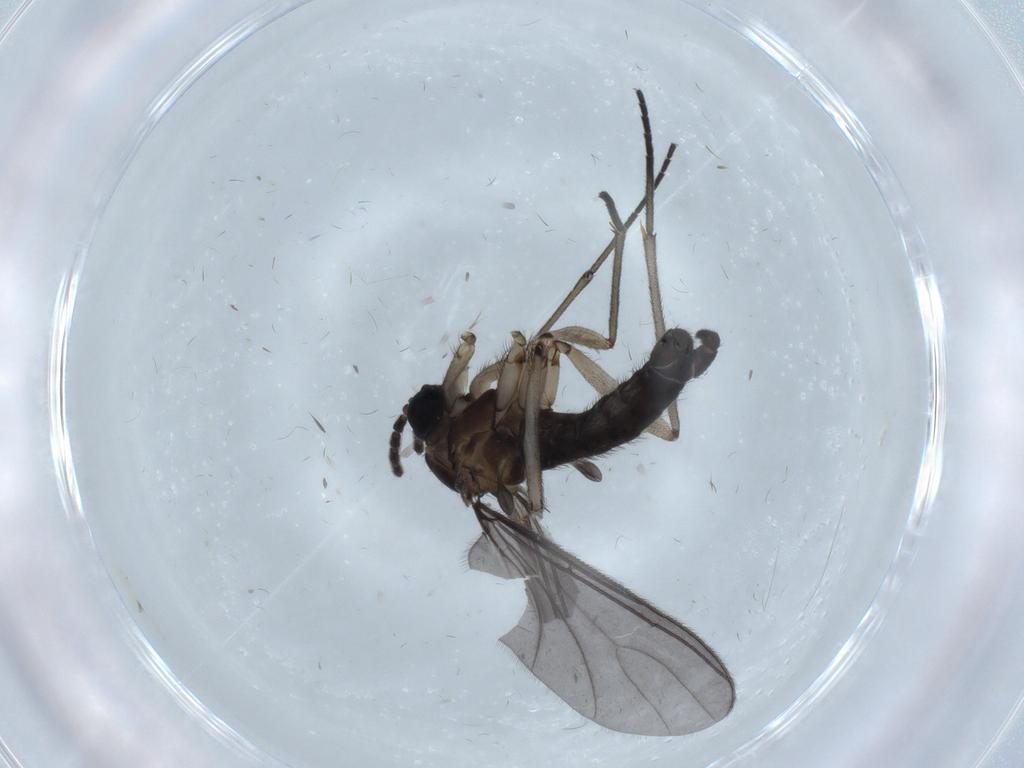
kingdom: Animalia
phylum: Arthropoda
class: Insecta
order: Diptera
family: Sciaridae
